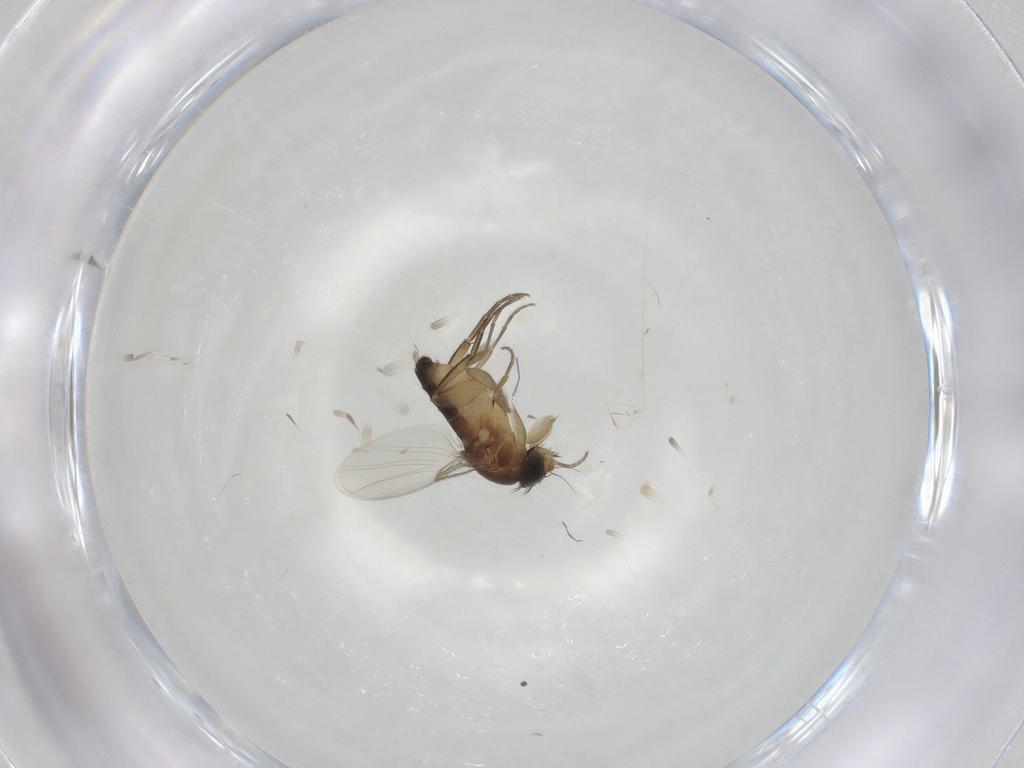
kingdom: Animalia
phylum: Arthropoda
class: Insecta
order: Diptera
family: Phoridae
